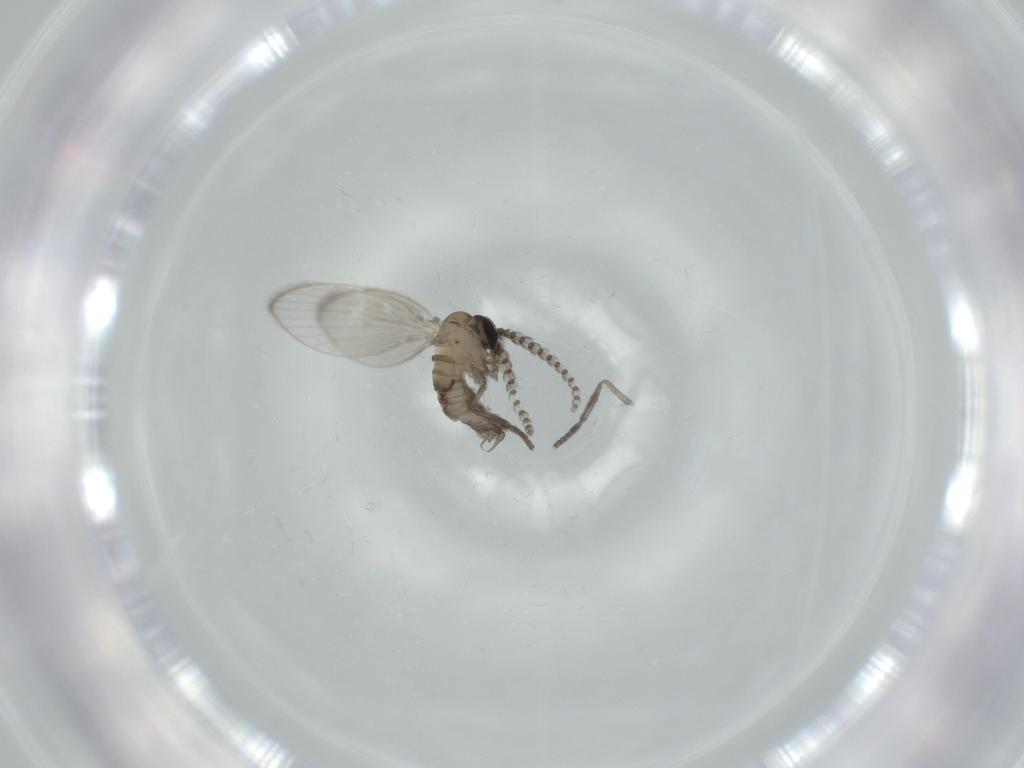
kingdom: Animalia
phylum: Arthropoda
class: Insecta
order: Diptera
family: Psychodidae
